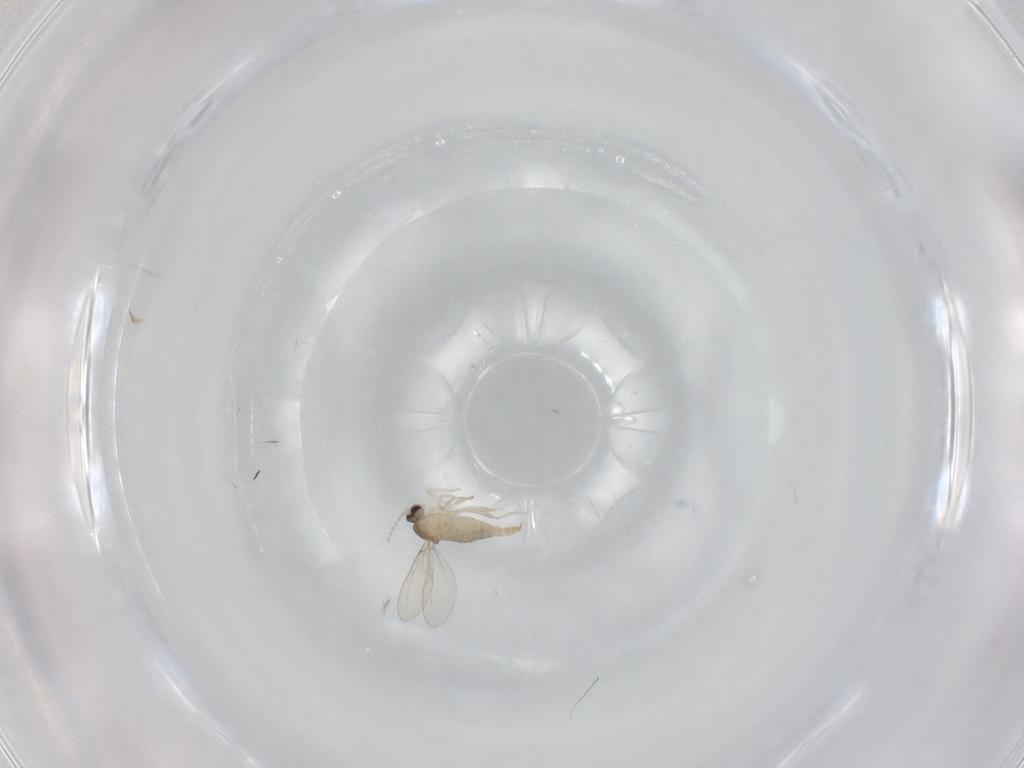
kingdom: Animalia
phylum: Arthropoda
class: Insecta
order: Diptera
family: Cecidomyiidae
